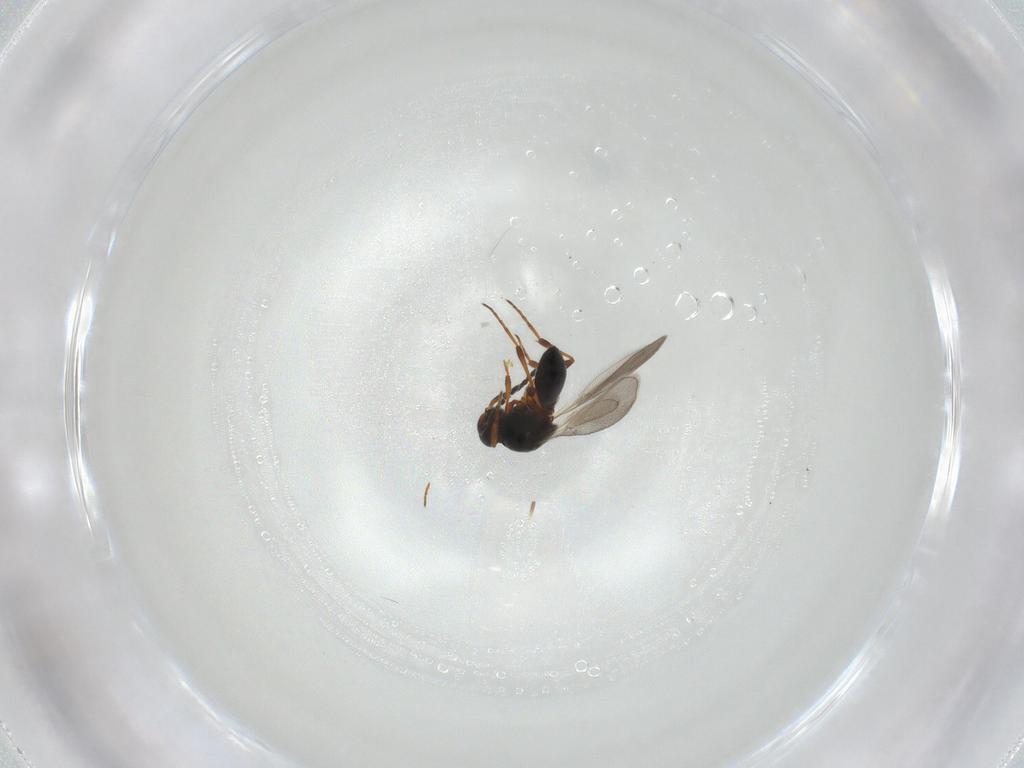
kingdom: Animalia
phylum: Arthropoda
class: Insecta
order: Hymenoptera
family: Platygastridae
